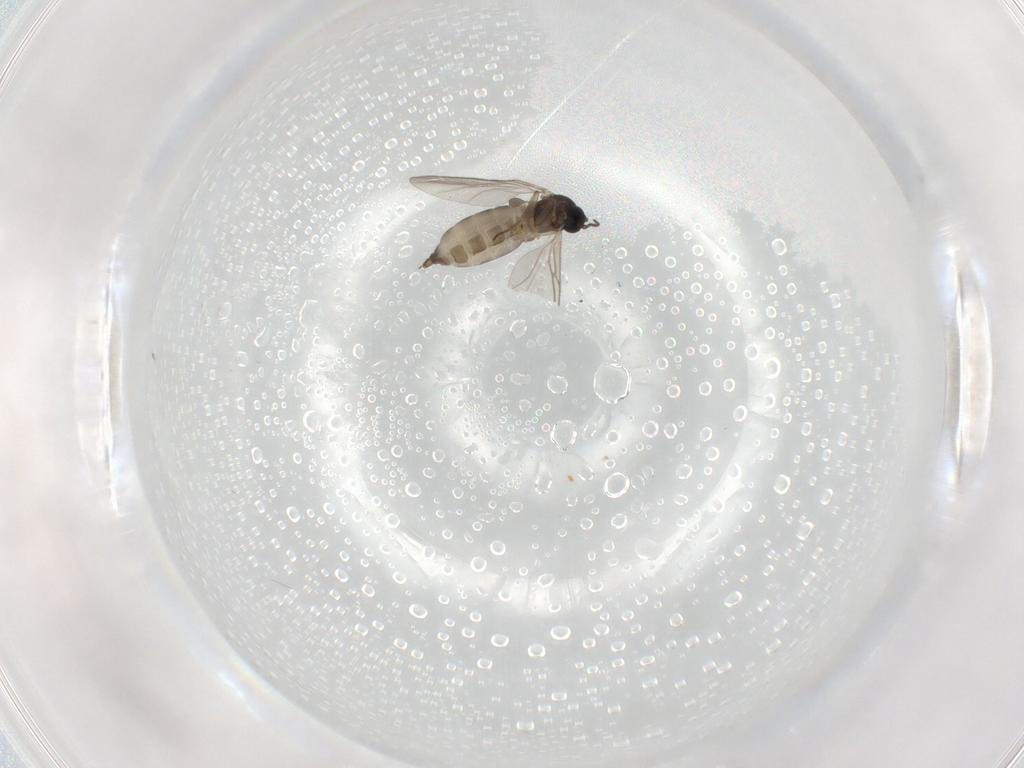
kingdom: Animalia
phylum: Arthropoda
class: Insecta
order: Diptera
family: Sciaridae
